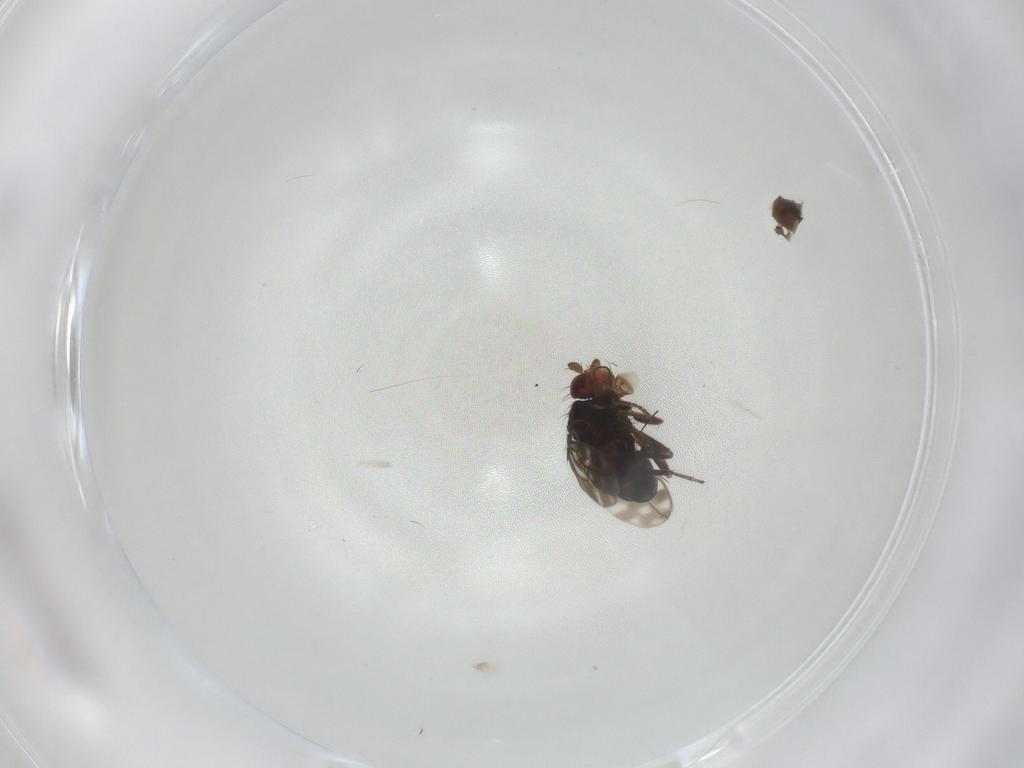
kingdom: Animalia
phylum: Arthropoda
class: Insecta
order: Diptera
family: Sphaeroceridae
